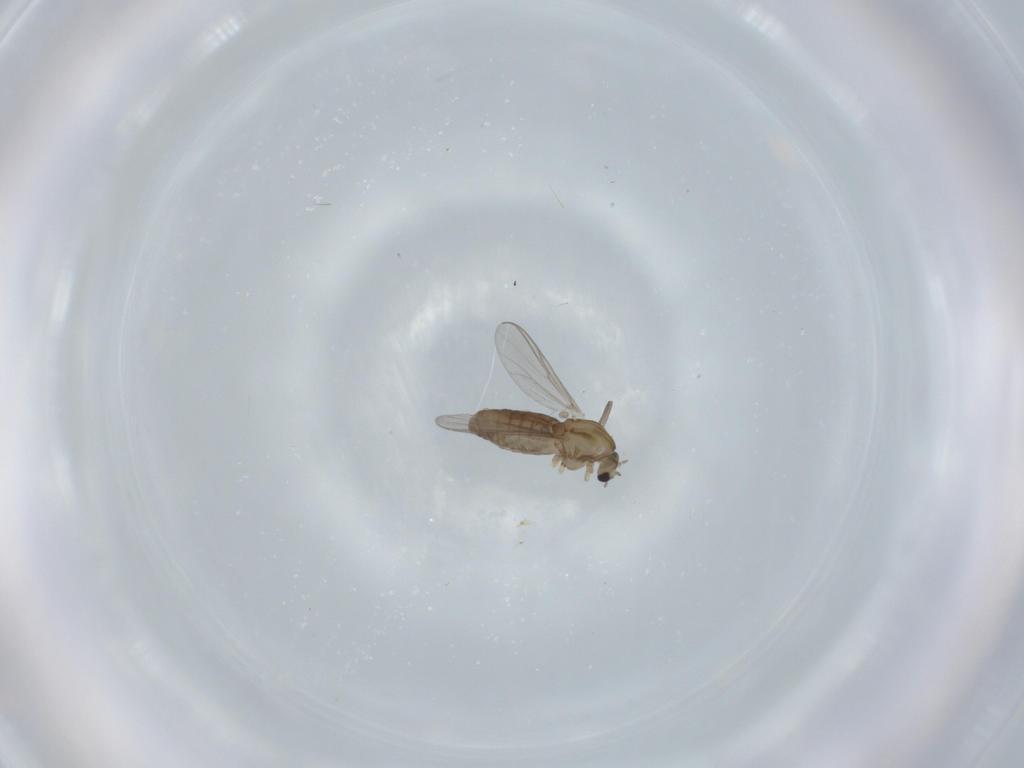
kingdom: Animalia
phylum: Arthropoda
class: Insecta
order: Diptera
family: Chironomidae
